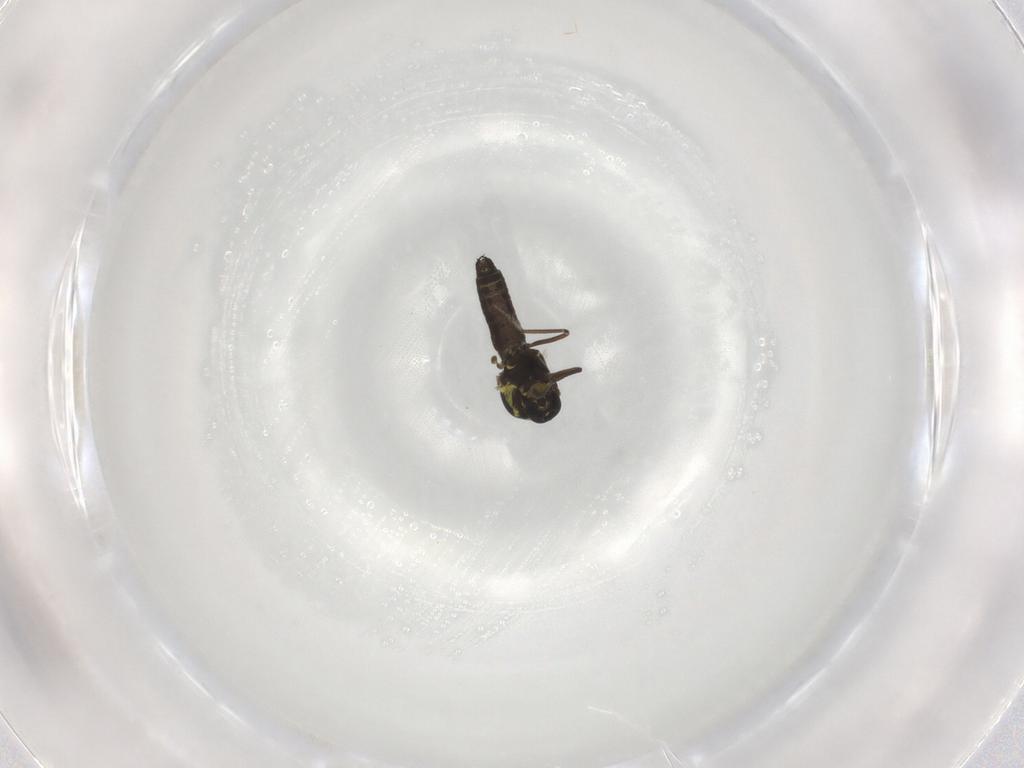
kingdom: Animalia
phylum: Arthropoda
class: Insecta
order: Diptera
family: Ceratopogonidae
